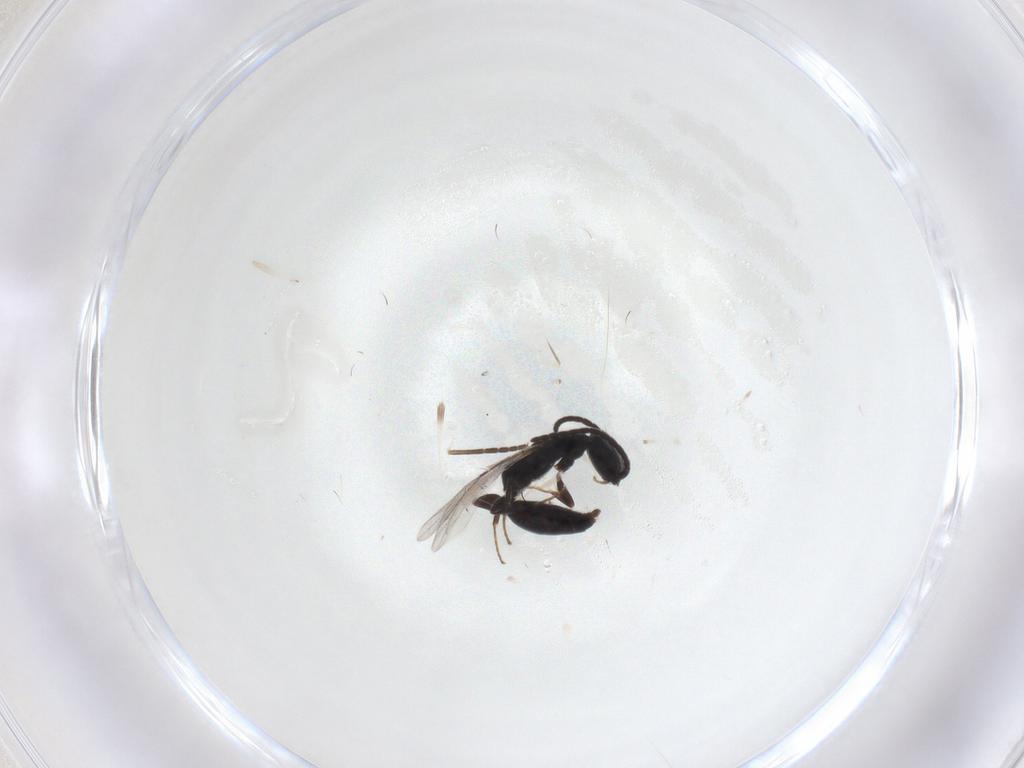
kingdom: Animalia
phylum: Arthropoda
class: Insecta
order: Hymenoptera
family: Bethylidae
